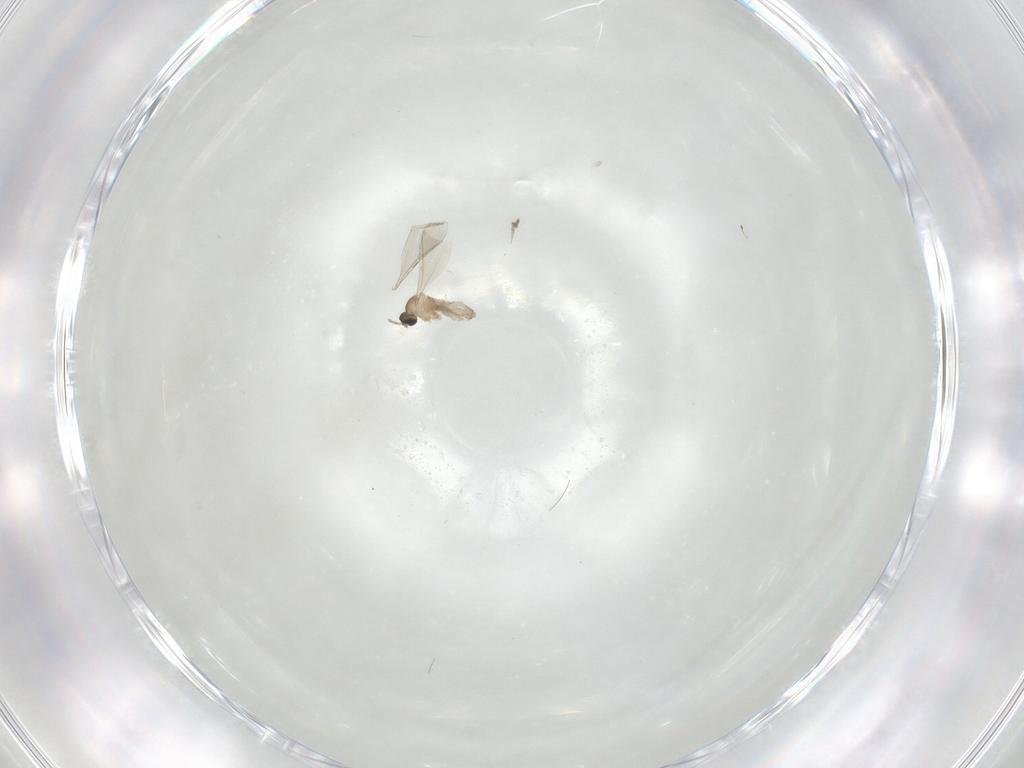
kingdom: Animalia
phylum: Arthropoda
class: Insecta
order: Diptera
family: Cecidomyiidae
